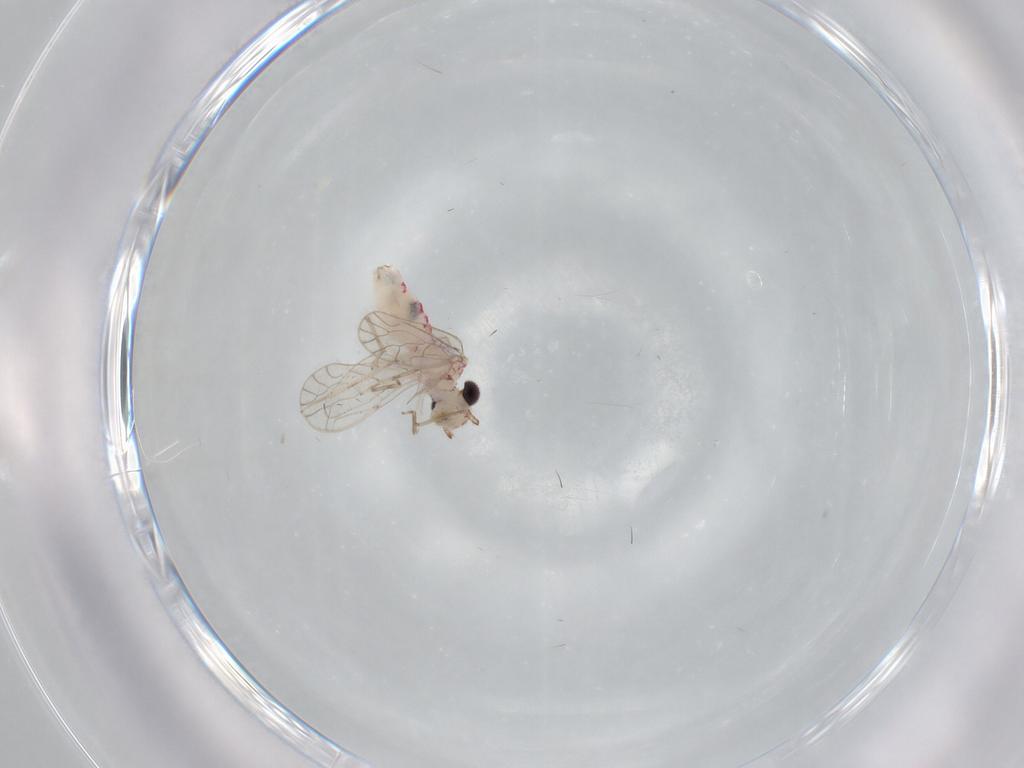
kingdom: Animalia
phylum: Arthropoda
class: Insecta
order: Psocodea
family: Caeciliusidae
